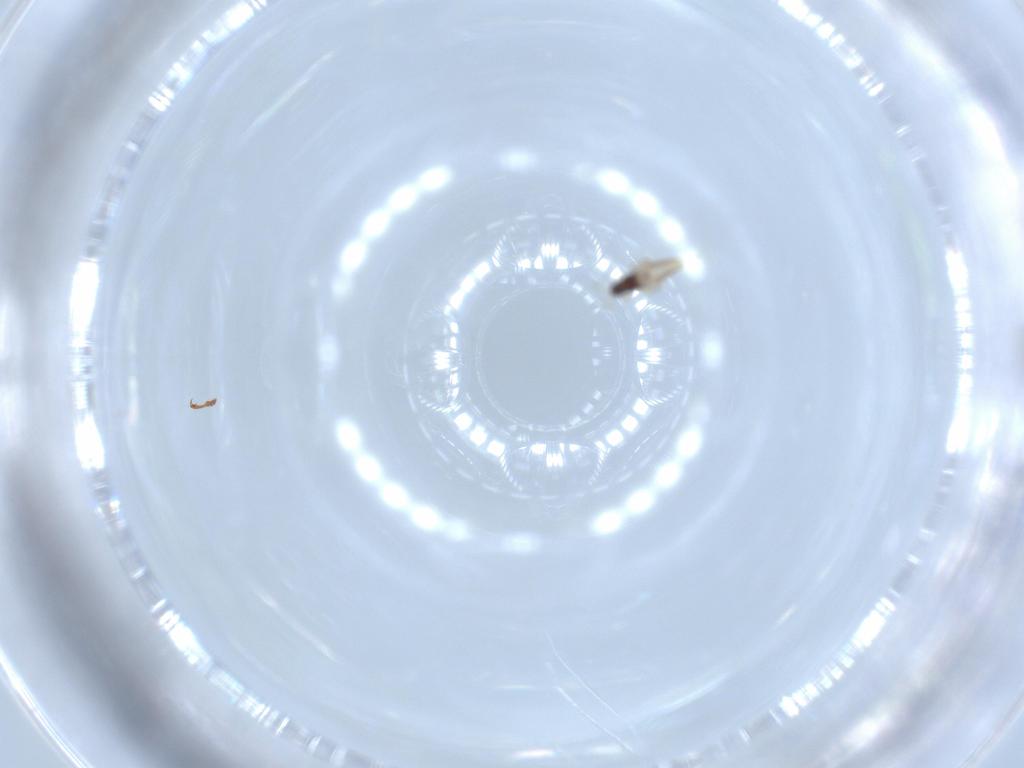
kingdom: Animalia
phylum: Arthropoda
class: Insecta
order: Thysanoptera
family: Phlaeothripidae
